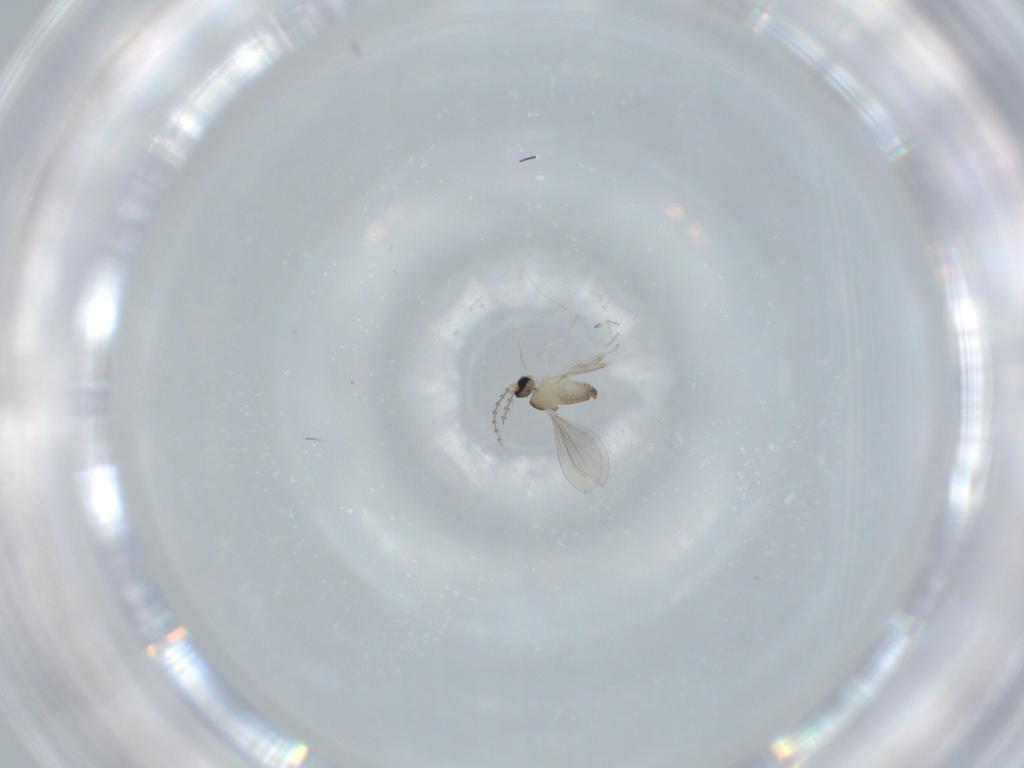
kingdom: Animalia
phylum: Arthropoda
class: Insecta
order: Diptera
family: Cecidomyiidae
